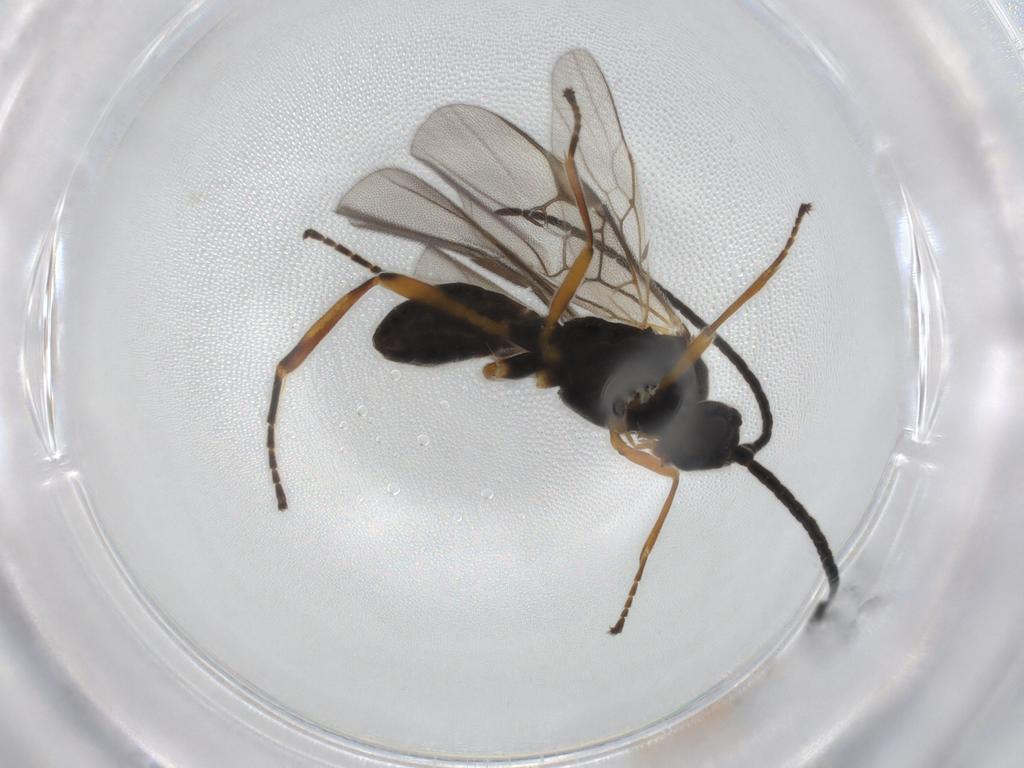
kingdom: Animalia
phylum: Arthropoda
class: Insecta
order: Hymenoptera
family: Braconidae
